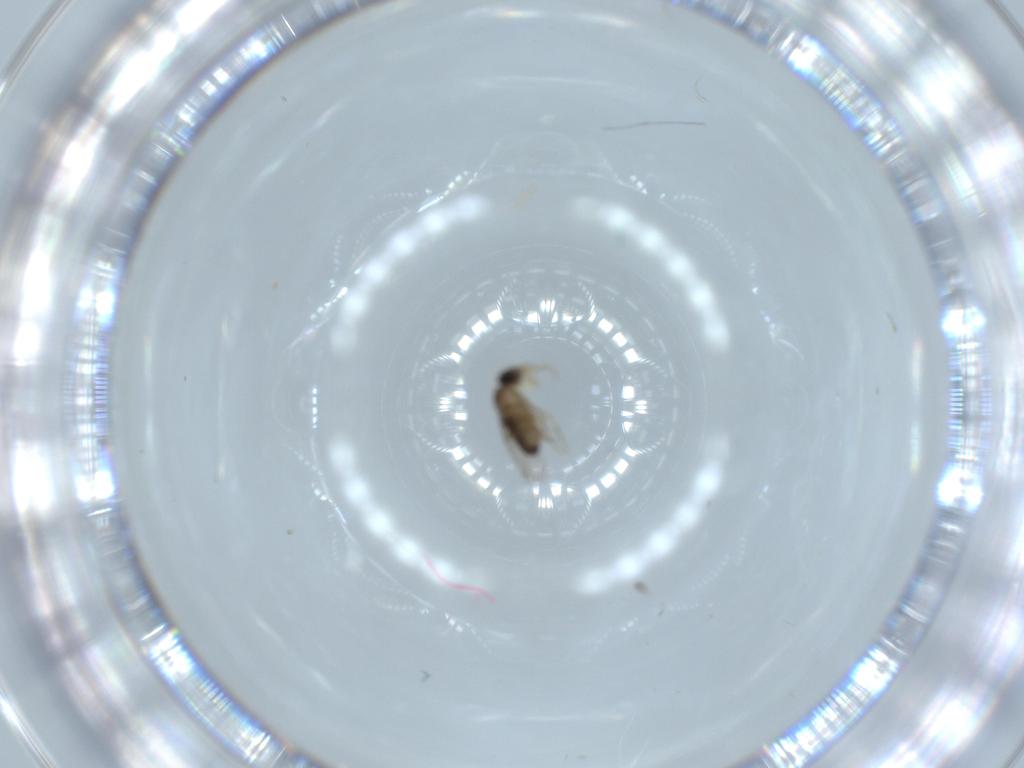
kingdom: Animalia
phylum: Arthropoda
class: Insecta
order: Diptera
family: Phoridae
